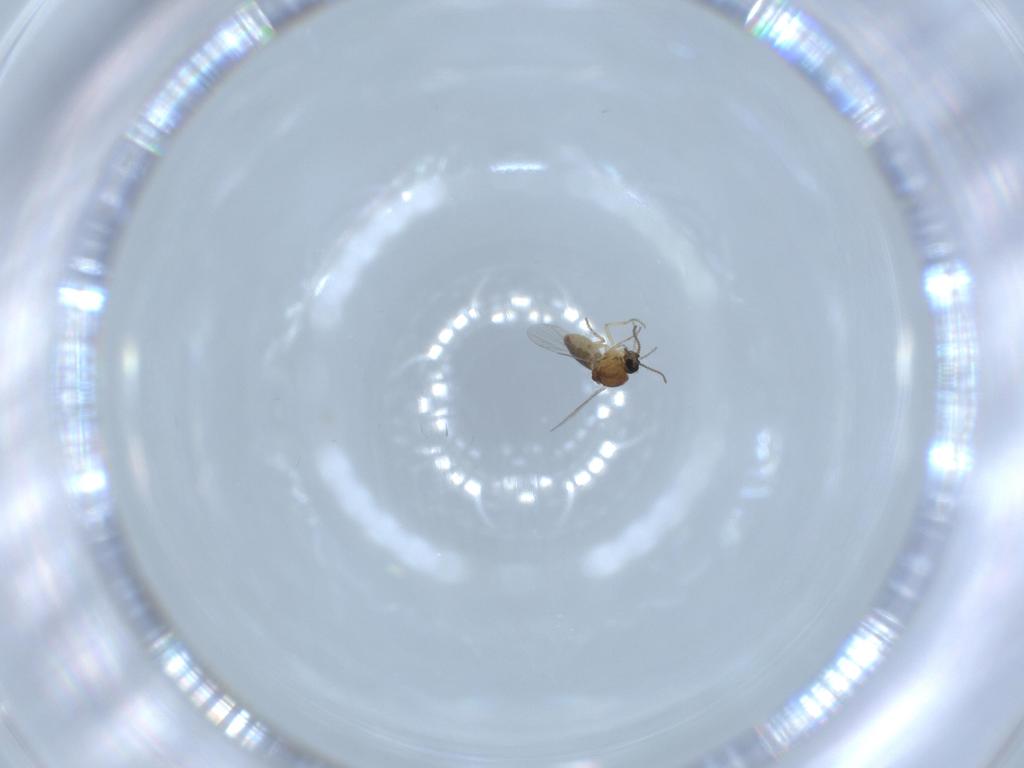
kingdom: Animalia
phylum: Arthropoda
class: Insecta
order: Diptera
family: Ceratopogonidae
